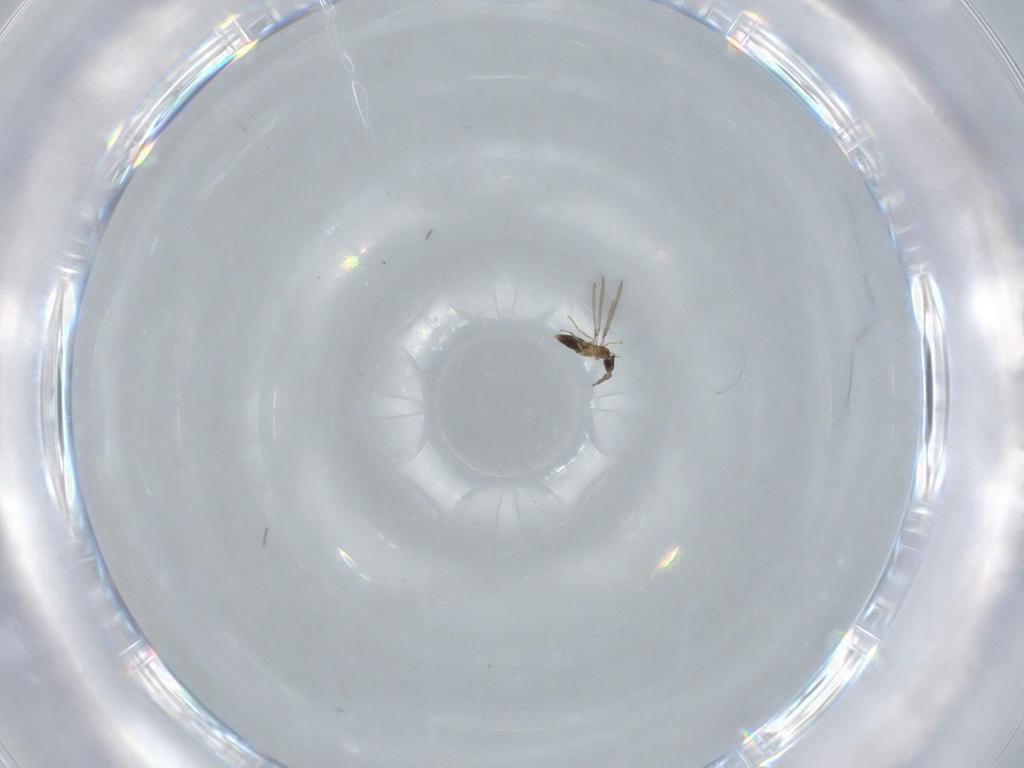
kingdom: Animalia
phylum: Arthropoda
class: Insecta
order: Hymenoptera
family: Mymaridae
